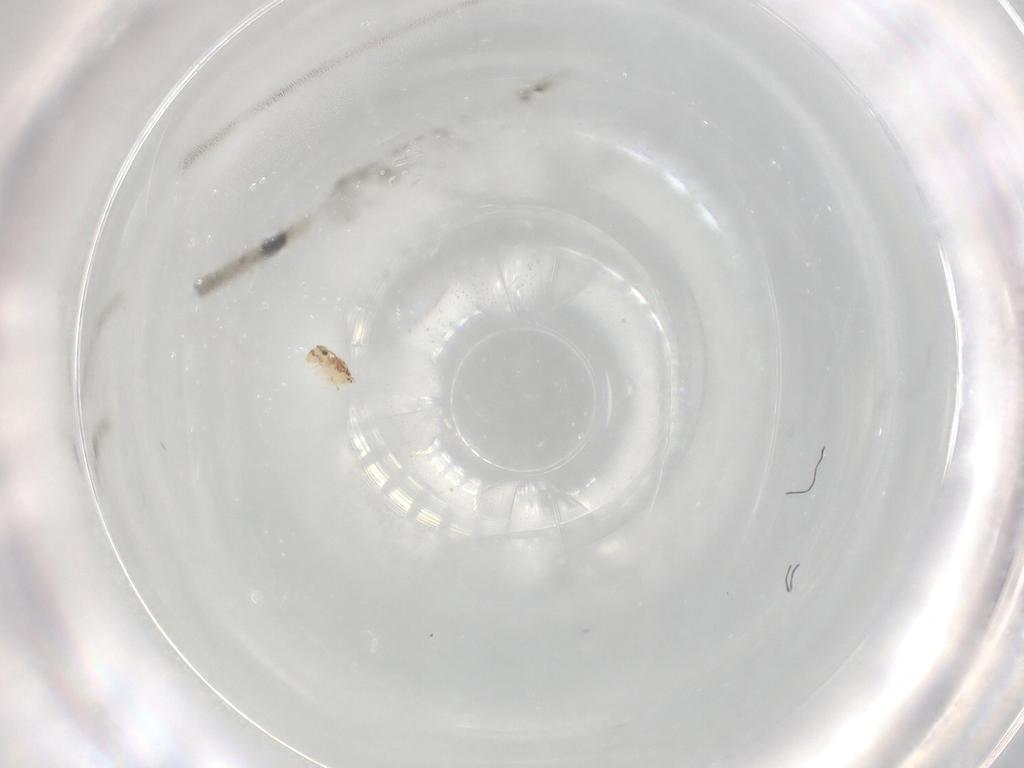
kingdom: Animalia
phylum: Arthropoda
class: Collembola
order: Symphypleona
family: Bourletiellidae
